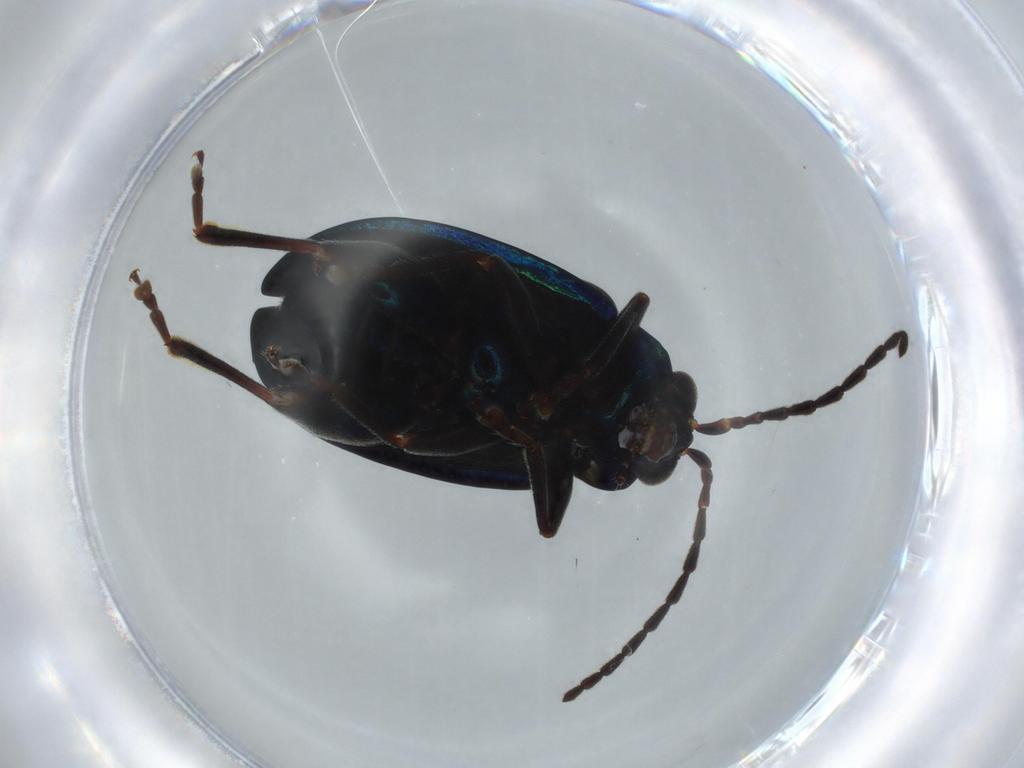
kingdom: Animalia
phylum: Arthropoda
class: Insecta
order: Coleoptera
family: Chrysomelidae
